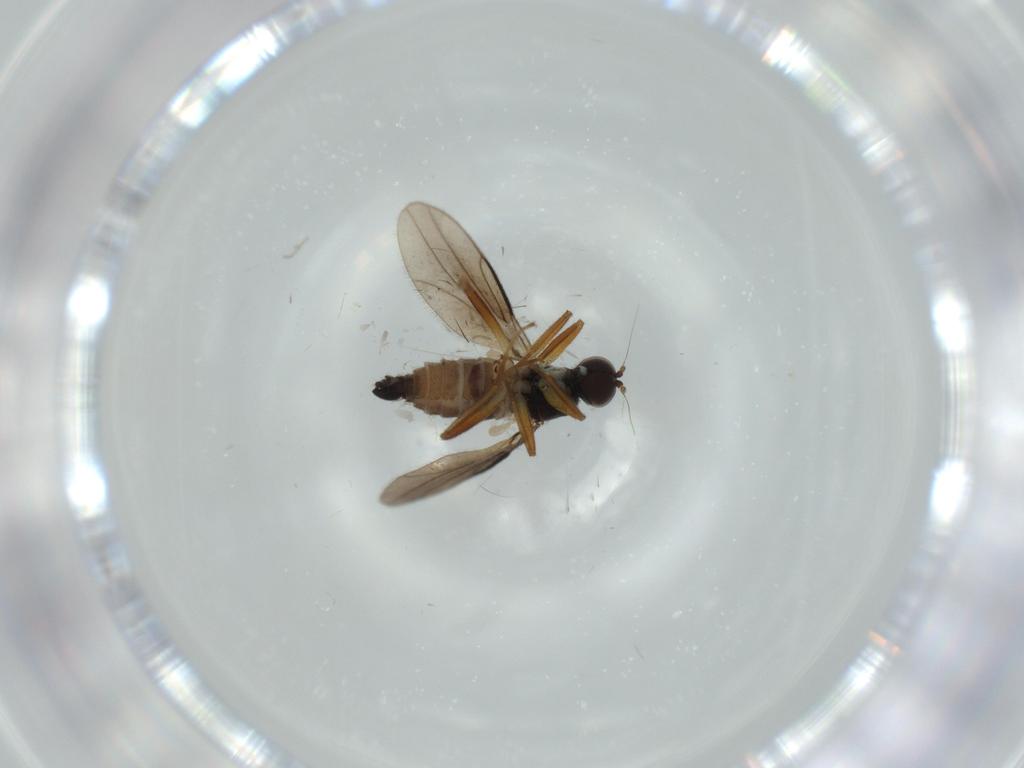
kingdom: Animalia
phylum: Arthropoda
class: Insecta
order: Diptera
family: Hybotidae
